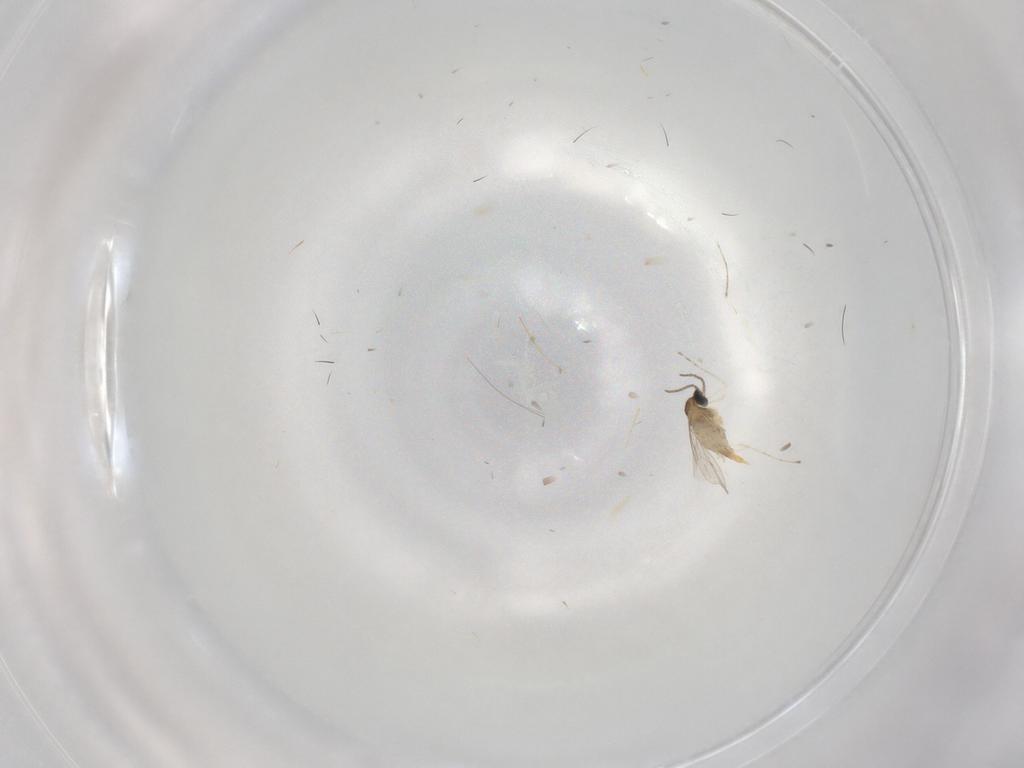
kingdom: Animalia
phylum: Arthropoda
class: Insecta
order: Diptera
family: Cecidomyiidae
